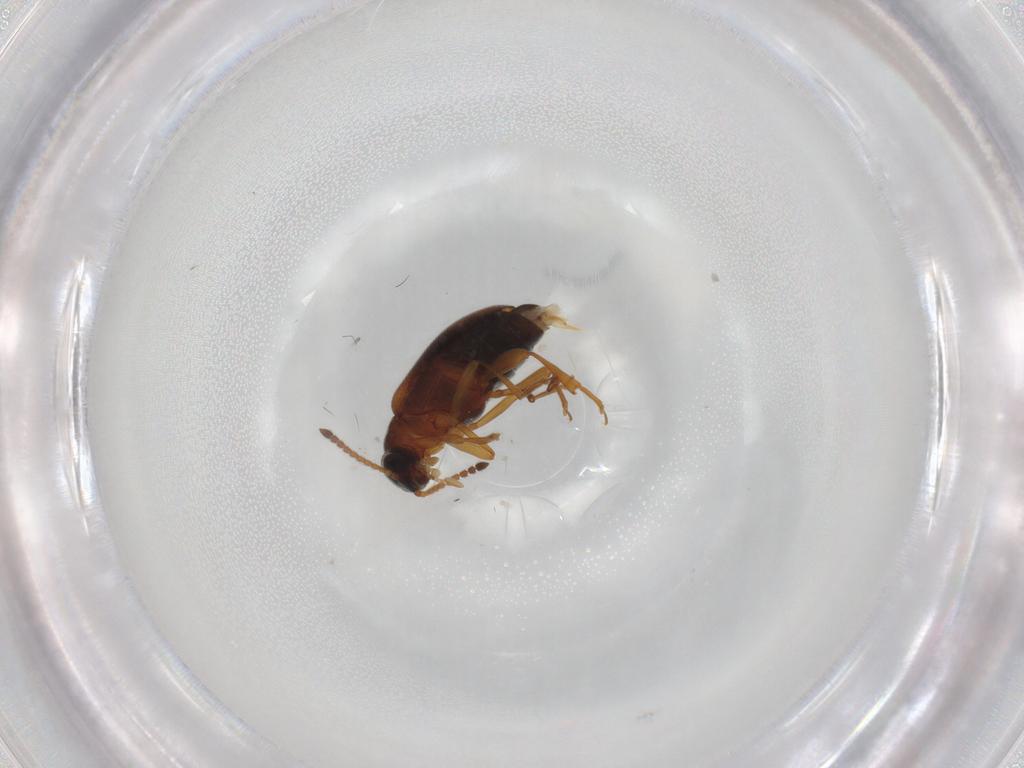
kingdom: Animalia
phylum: Arthropoda
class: Insecta
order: Coleoptera
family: Aderidae
